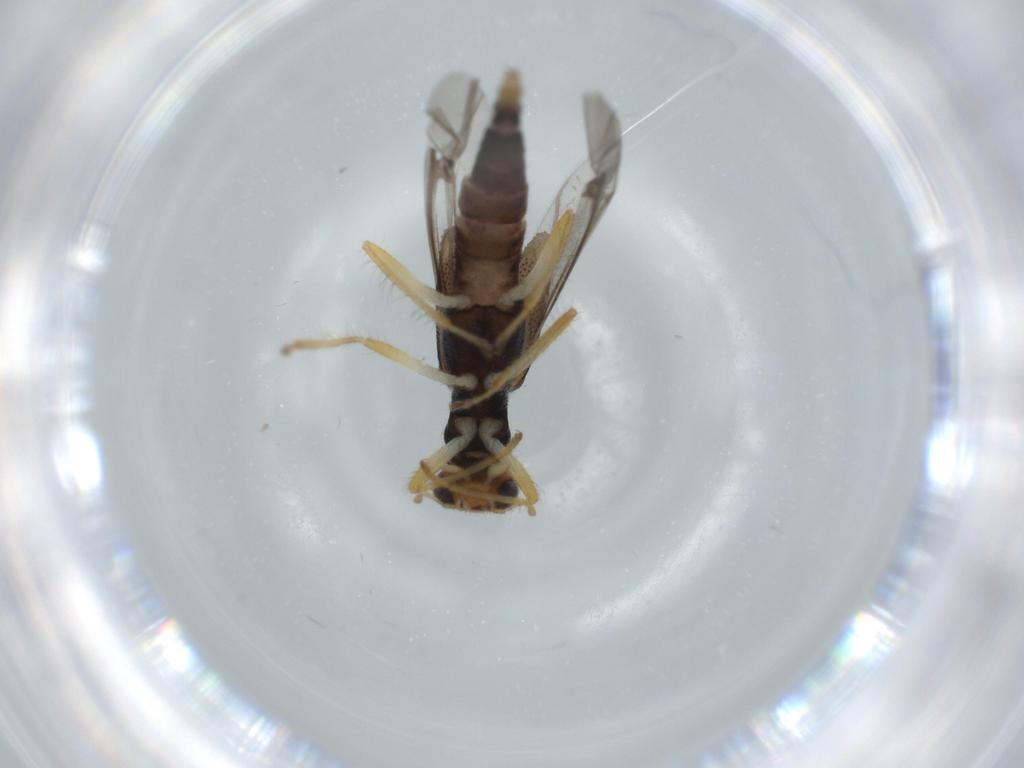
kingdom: Animalia
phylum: Arthropoda
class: Insecta
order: Coleoptera
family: Cleridae
